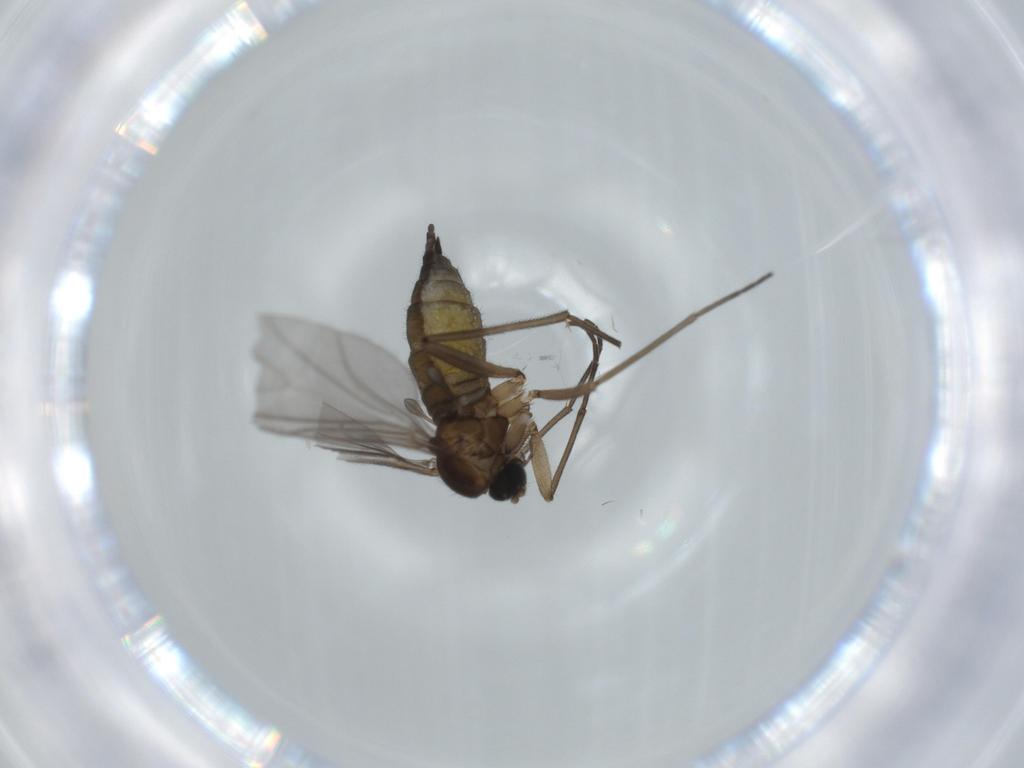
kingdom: Animalia
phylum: Arthropoda
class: Insecta
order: Diptera
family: Sciaridae
